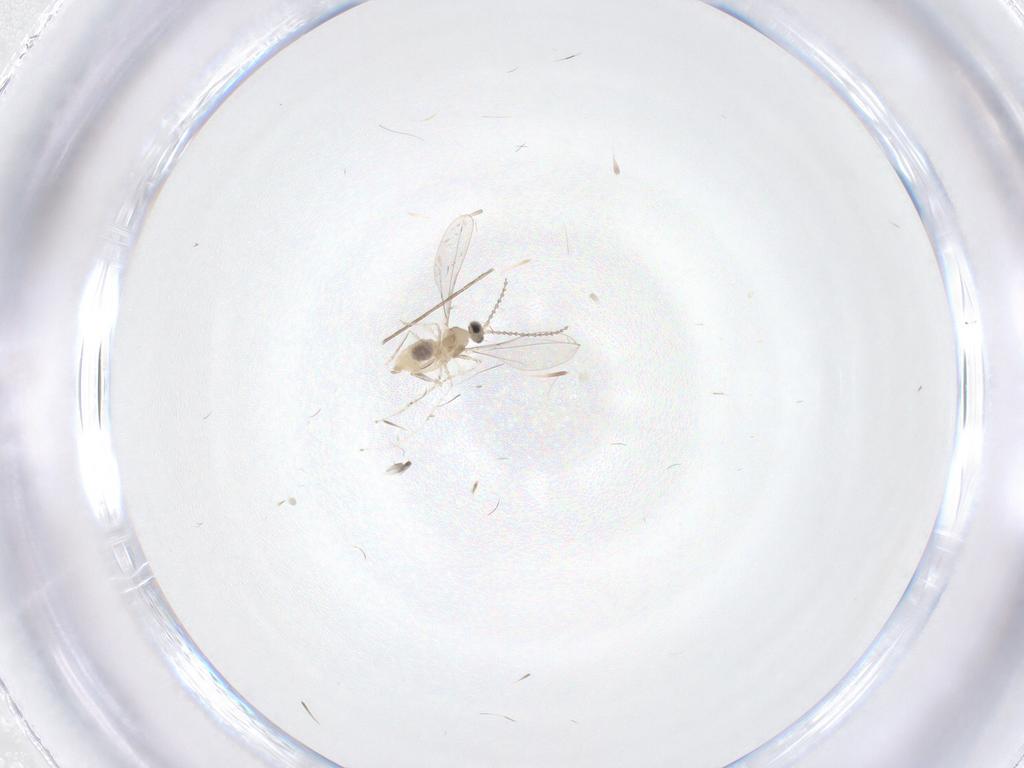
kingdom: Animalia
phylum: Arthropoda
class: Insecta
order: Diptera
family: Cecidomyiidae
